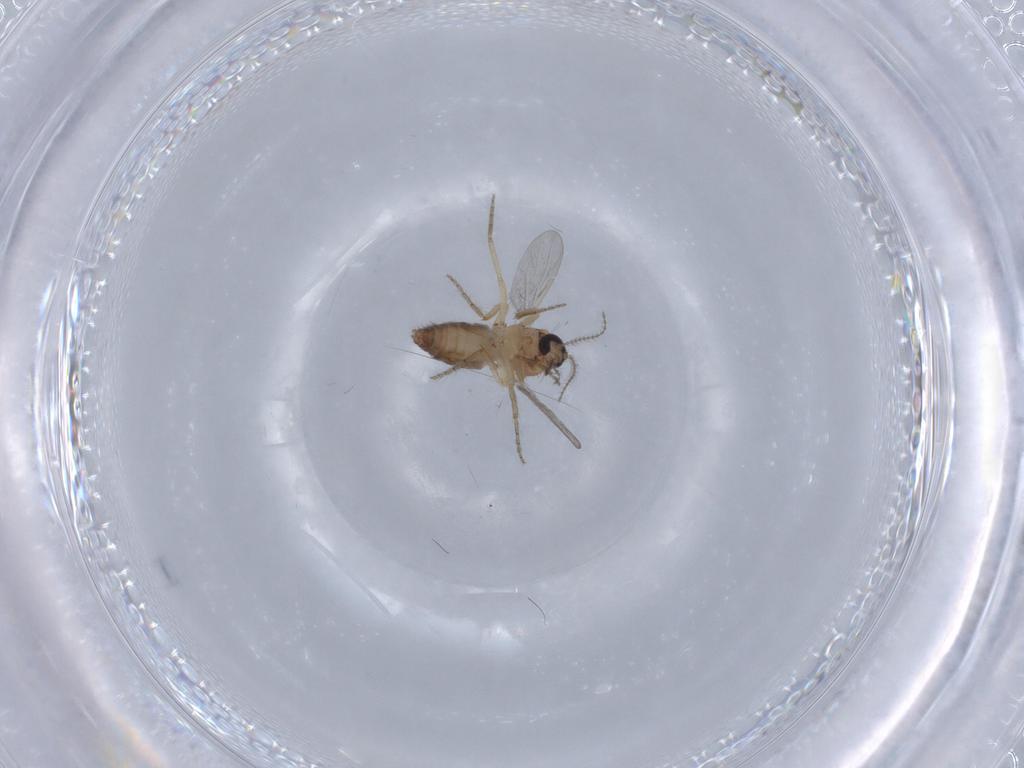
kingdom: Animalia
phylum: Arthropoda
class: Insecta
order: Diptera
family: Ceratopogonidae
